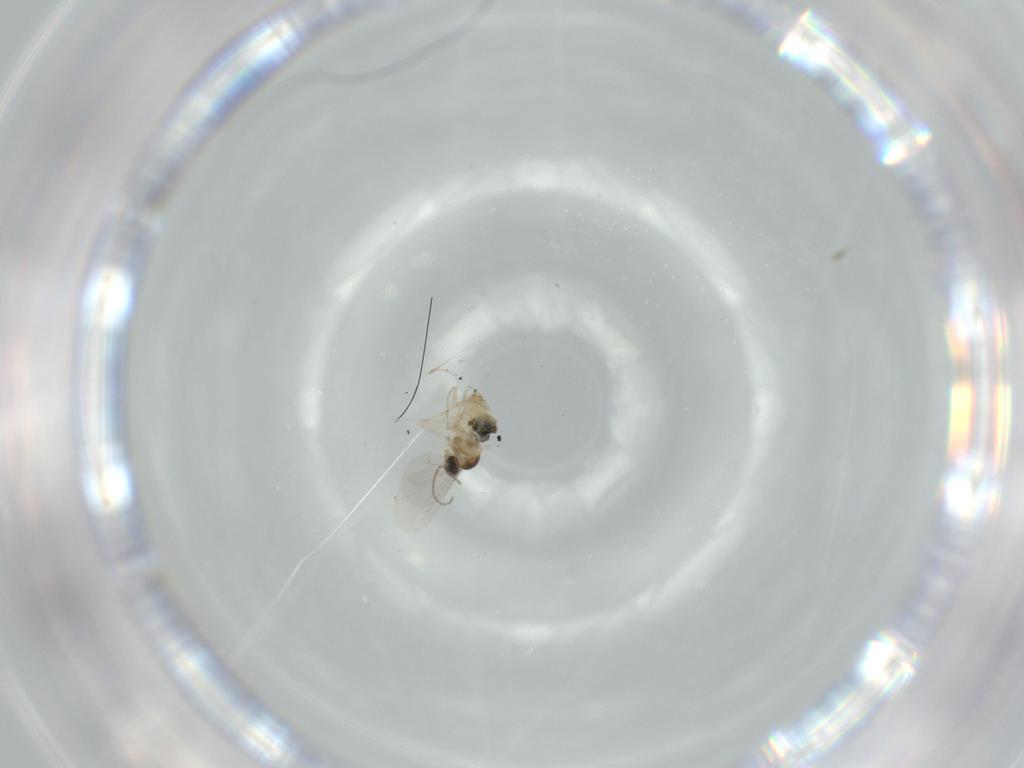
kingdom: Animalia
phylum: Arthropoda
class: Insecta
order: Diptera
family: Cecidomyiidae
